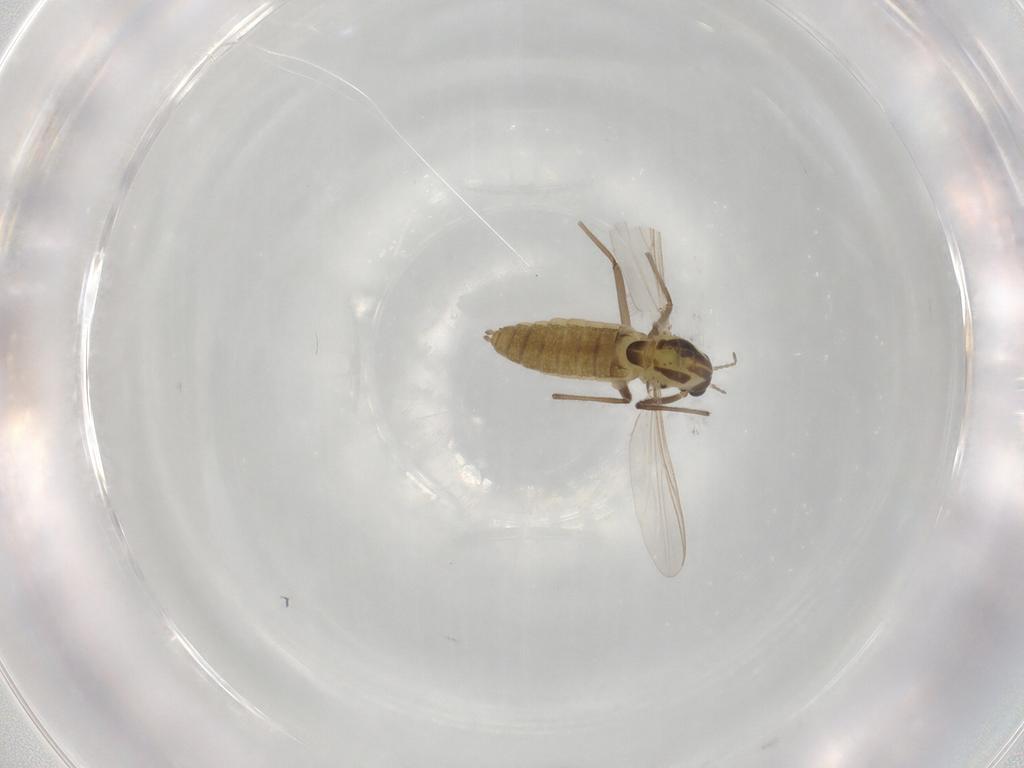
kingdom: Animalia
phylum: Arthropoda
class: Insecta
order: Diptera
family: Chironomidae
